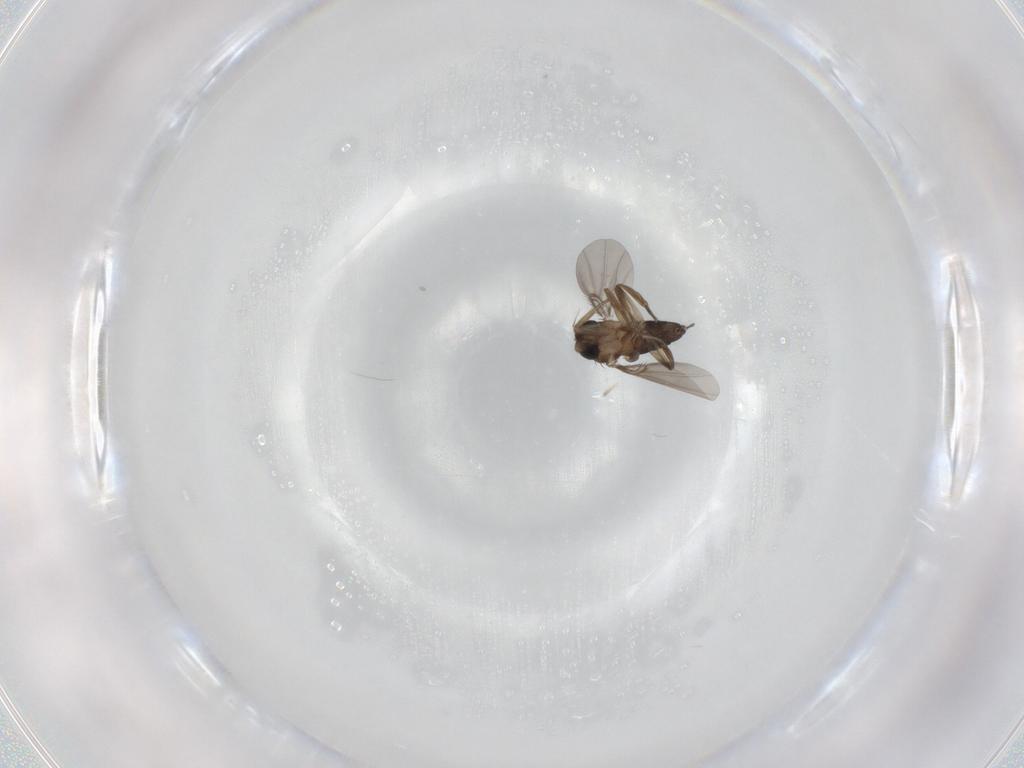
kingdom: Animalia
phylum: Arthropoda
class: Insecta
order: Diptera
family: Phoridae
